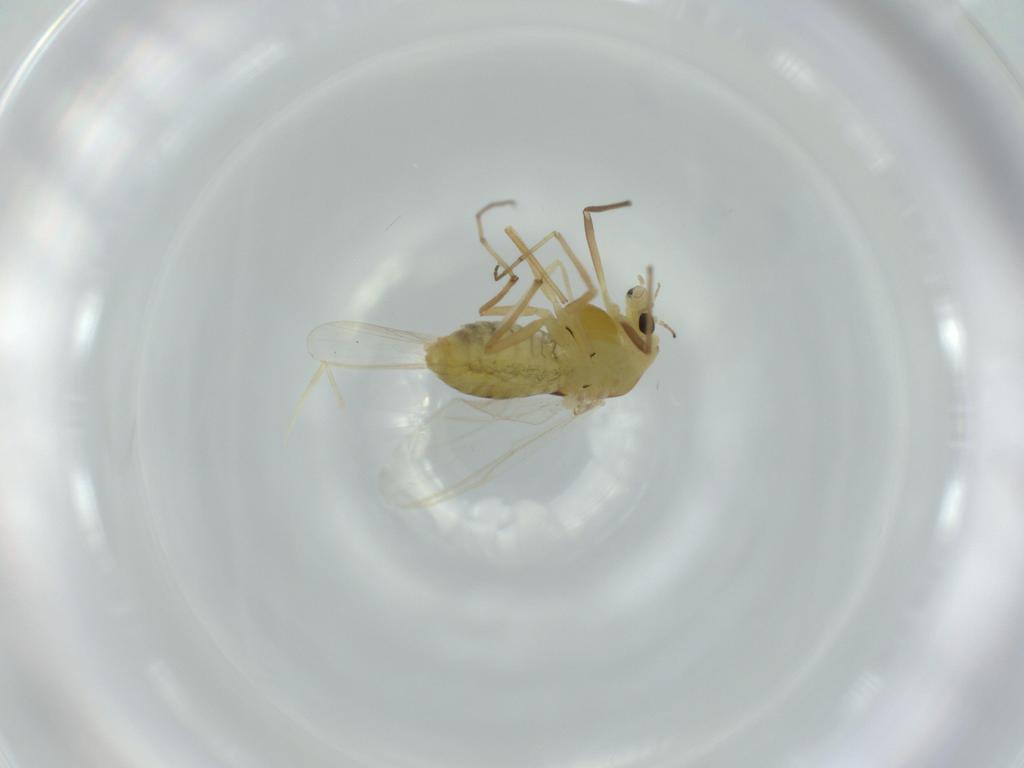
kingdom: Animalia
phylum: Arthropoda
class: Insecta
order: Diptera
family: Chironomidae
